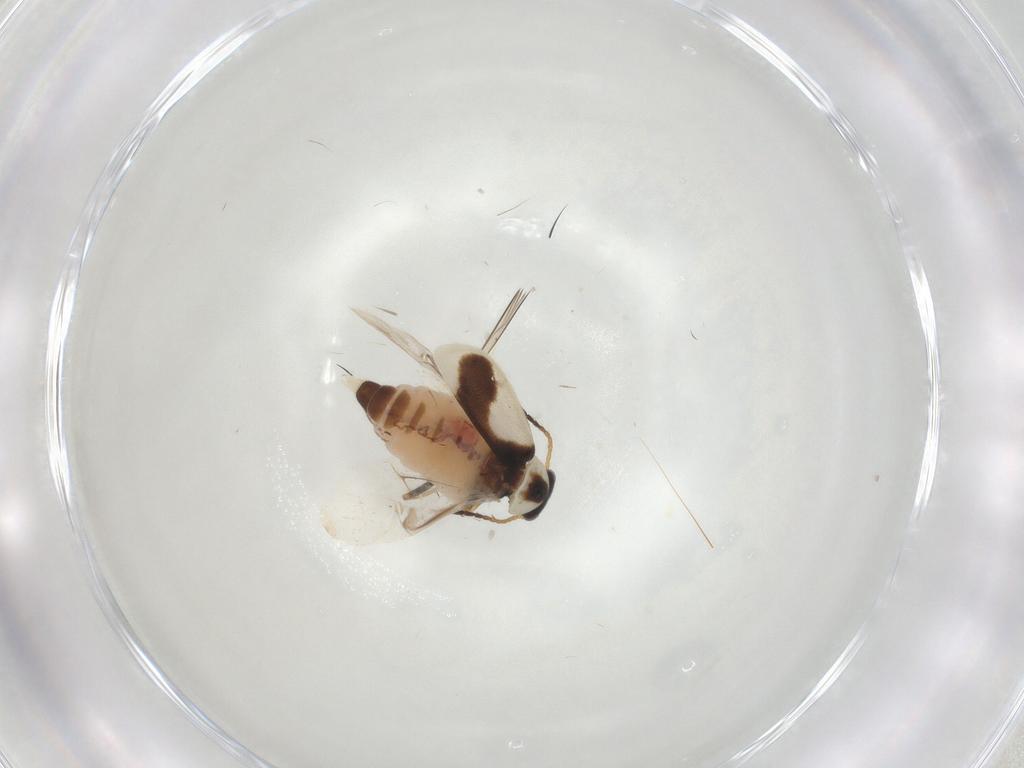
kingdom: Animalia
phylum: Arthropoda
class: Insecta
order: Coleoptera
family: Melyridae
